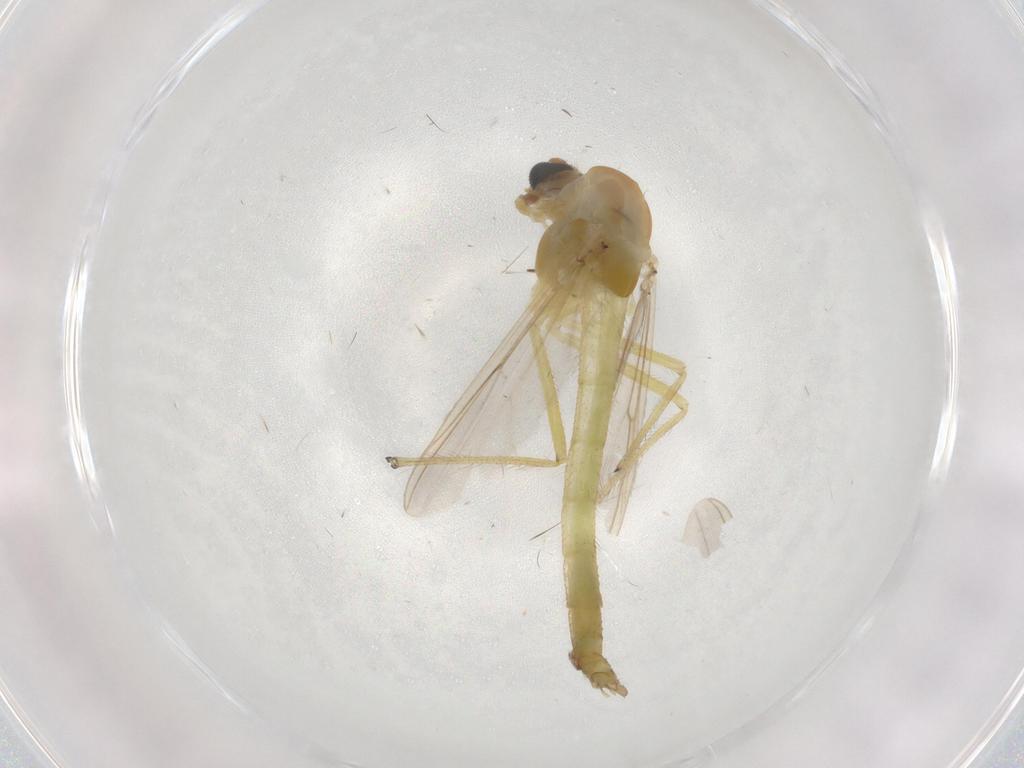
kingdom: Animalia
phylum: Arthropoda
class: Insecta
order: Diptera
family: Chironomidae
